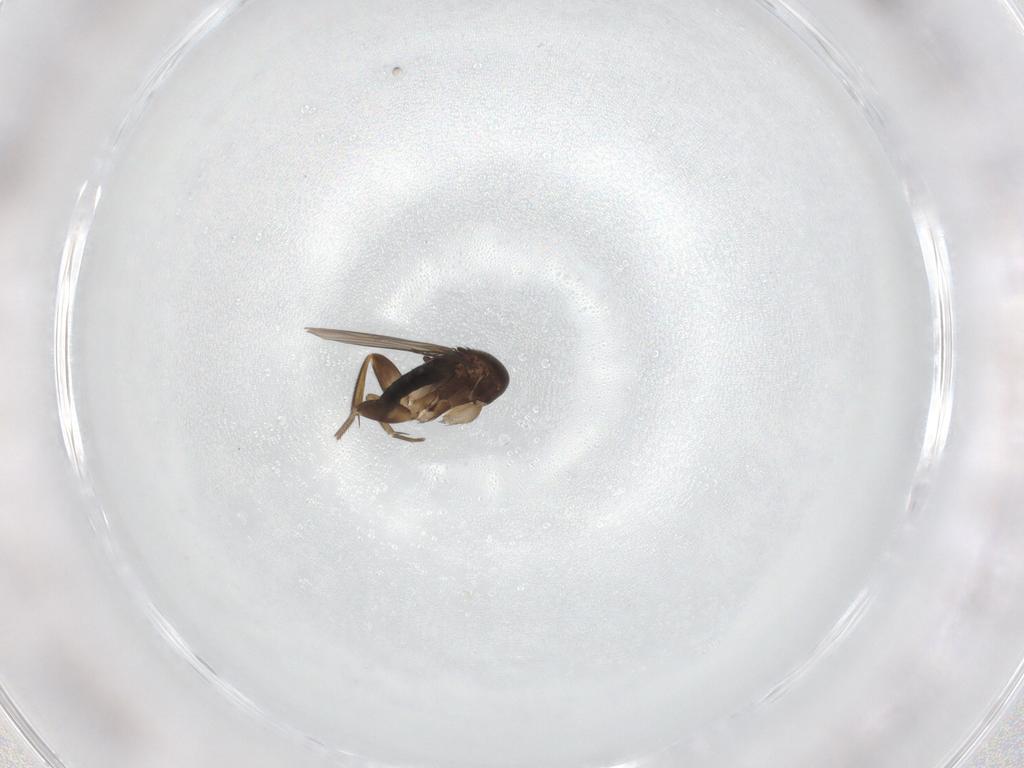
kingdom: Animalia
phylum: Arthropoda
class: Insecta
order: Diptera
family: Phoridae
